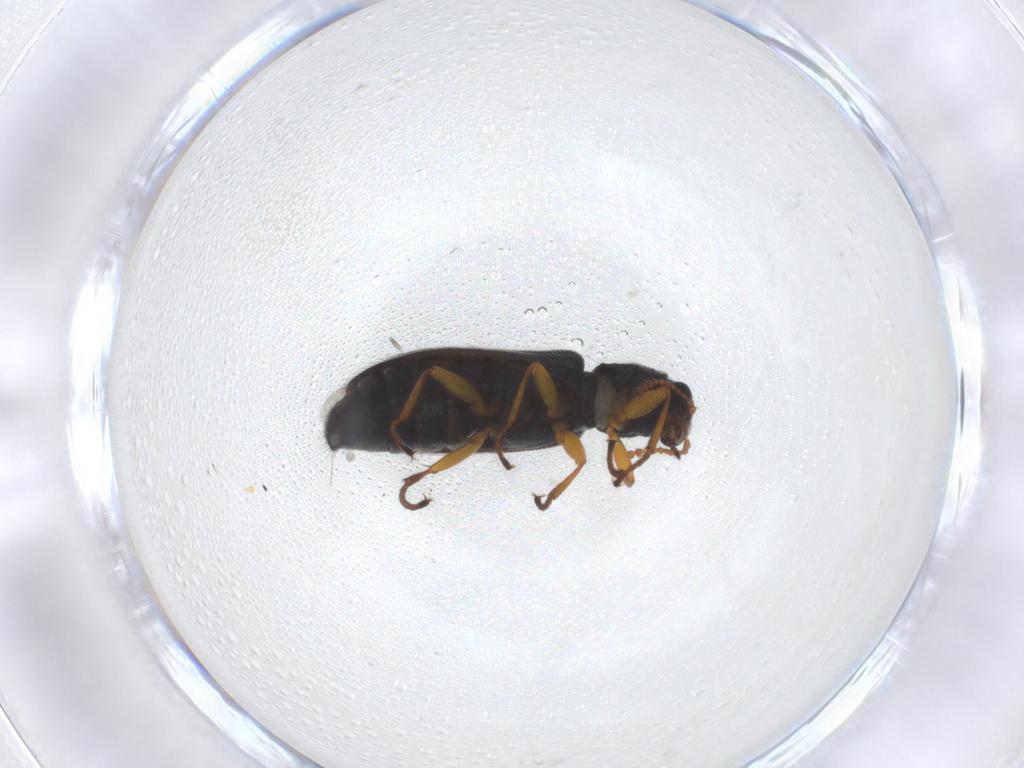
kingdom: Animalia
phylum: Arthropoda
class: Insecta
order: Coleoptera
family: Melyridae
